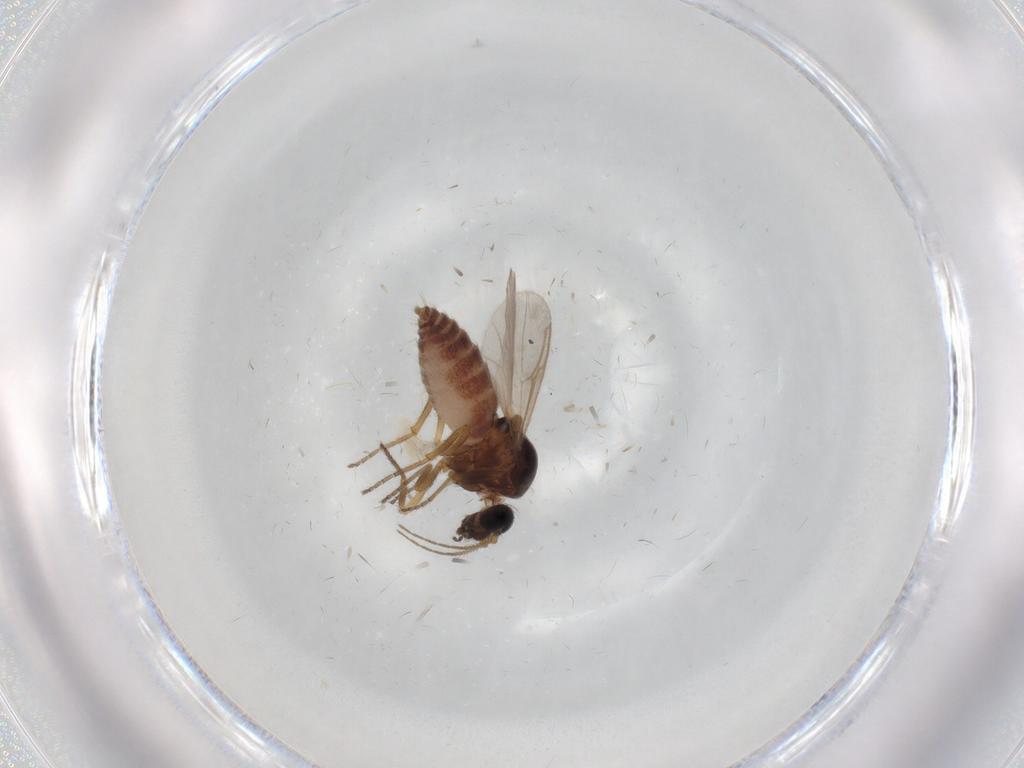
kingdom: Animalia
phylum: Arthropoda
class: Insecta
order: Diptera
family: Ceratopogonidae
